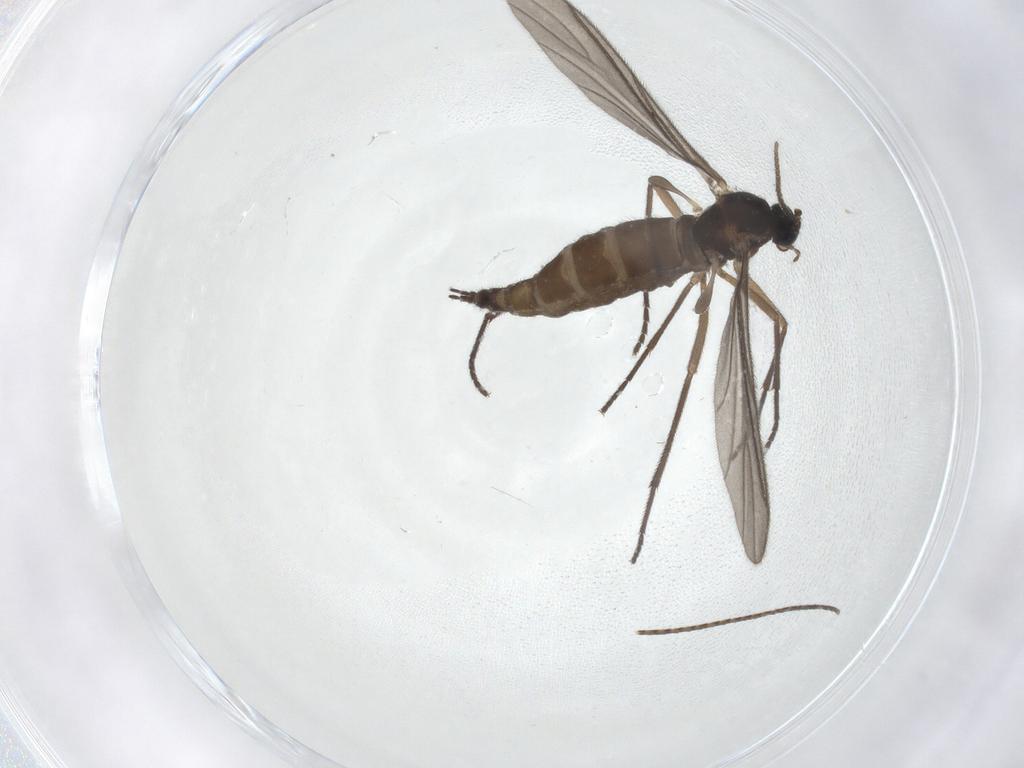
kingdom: Animalia
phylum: Arthropoda
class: Insecta
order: Diptera
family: Sciaridae
